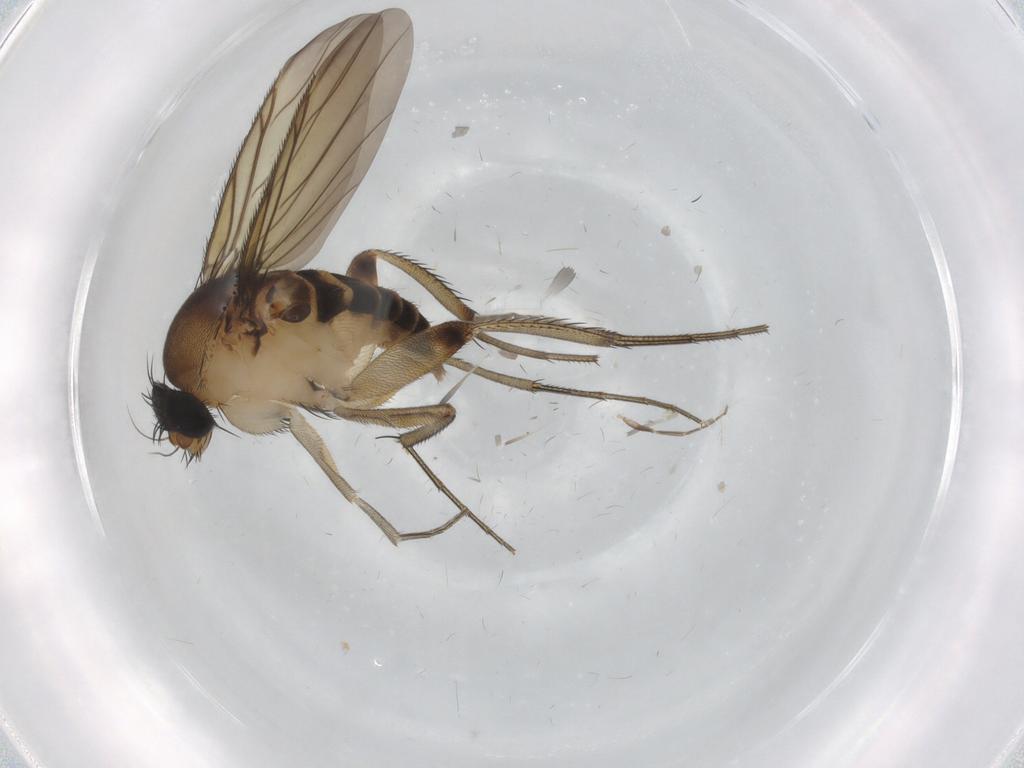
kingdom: Animalia
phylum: Arthropoda
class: Insecta
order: Diptera
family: Phoridae
